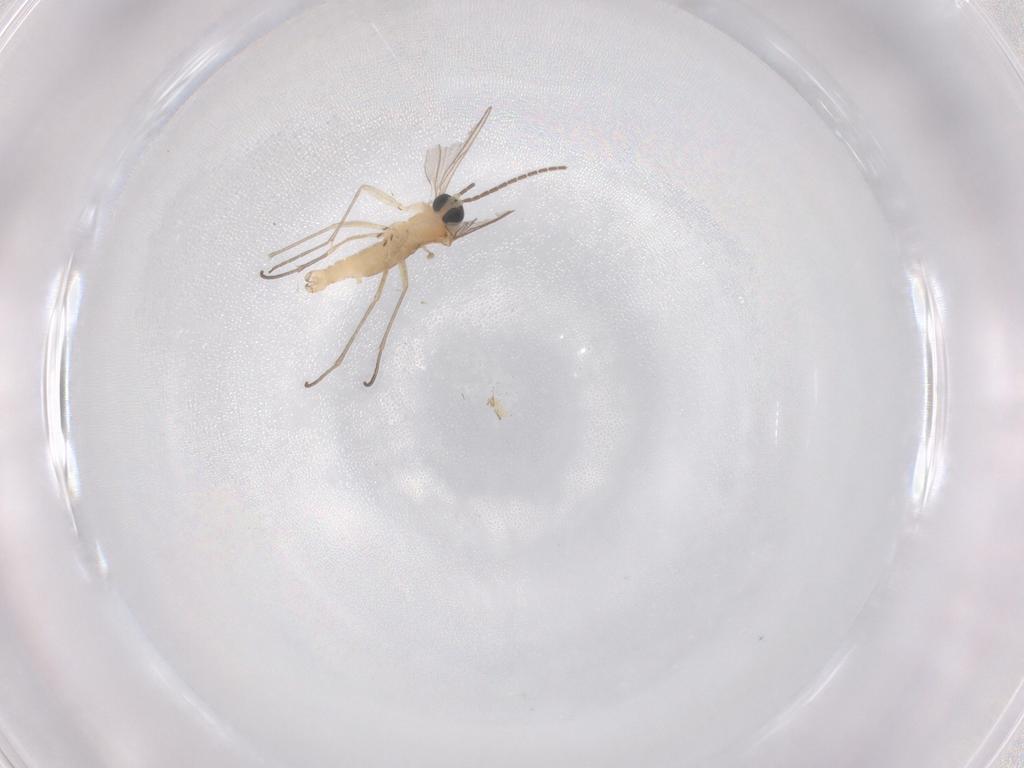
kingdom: Animalia
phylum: Arthropoda
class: Insecta
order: Diptera
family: Sciaridae
